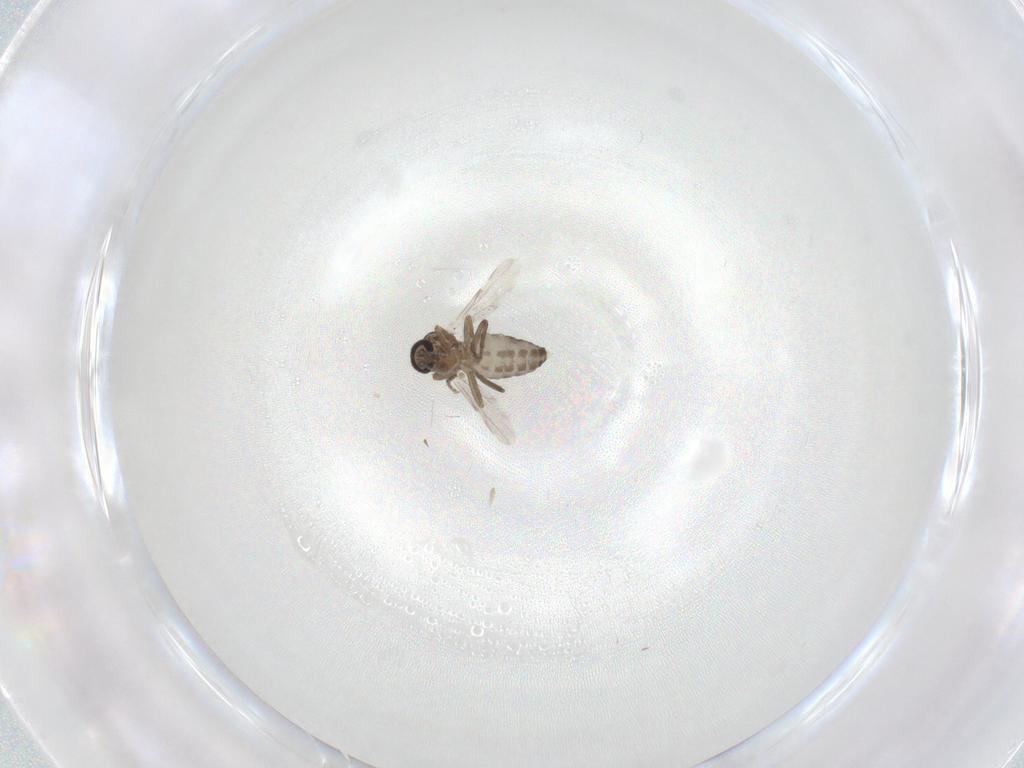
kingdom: Animalia
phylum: Arthropoda
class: Insecta
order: Diptera
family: Ceratopogonidae
